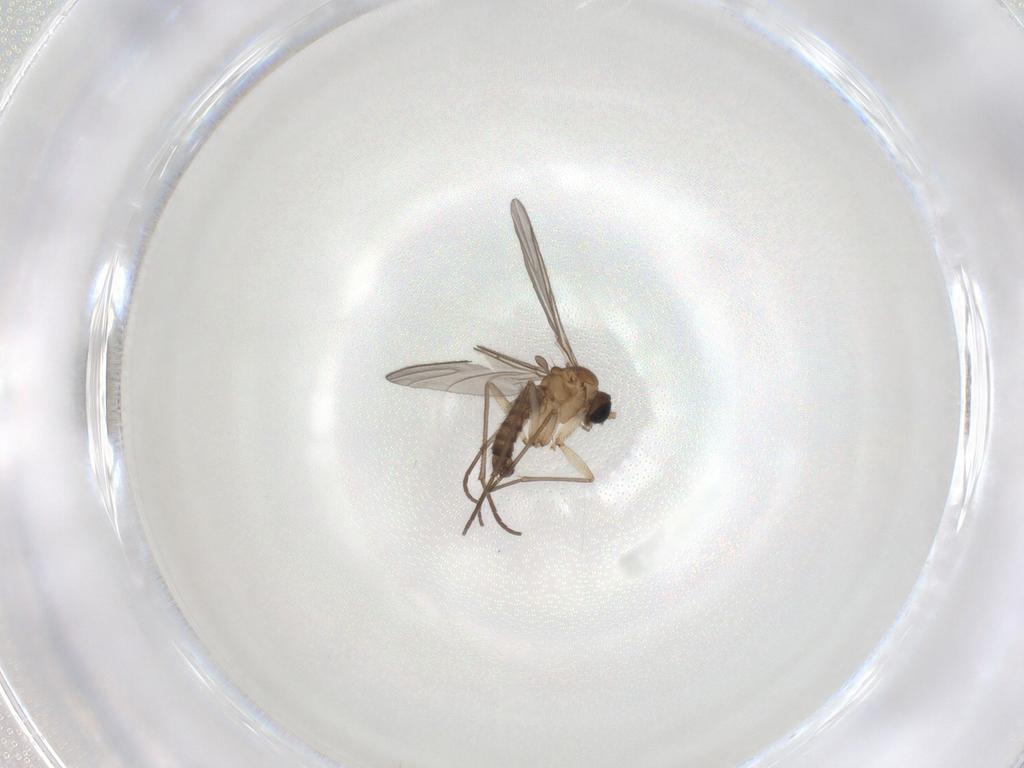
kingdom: Animalia
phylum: Arthropoda
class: Insecta
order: Diptera
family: Sciaridae
